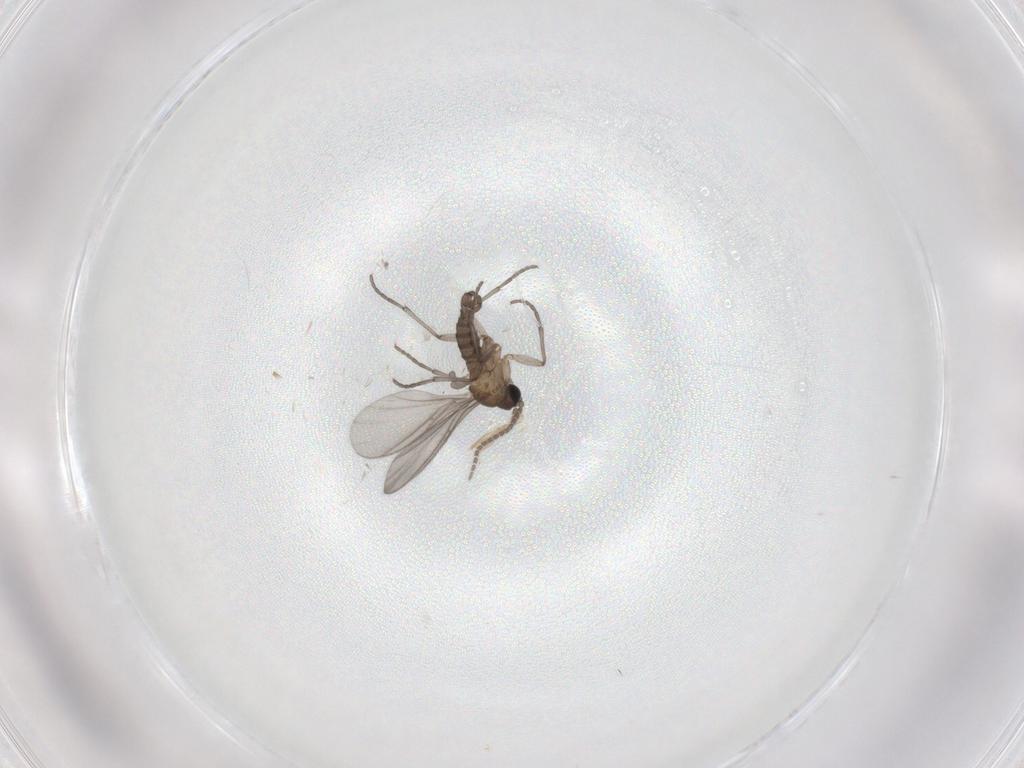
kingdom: Animalia
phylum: Arthropoda
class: Insecta
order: Diptera
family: Sciaridae
